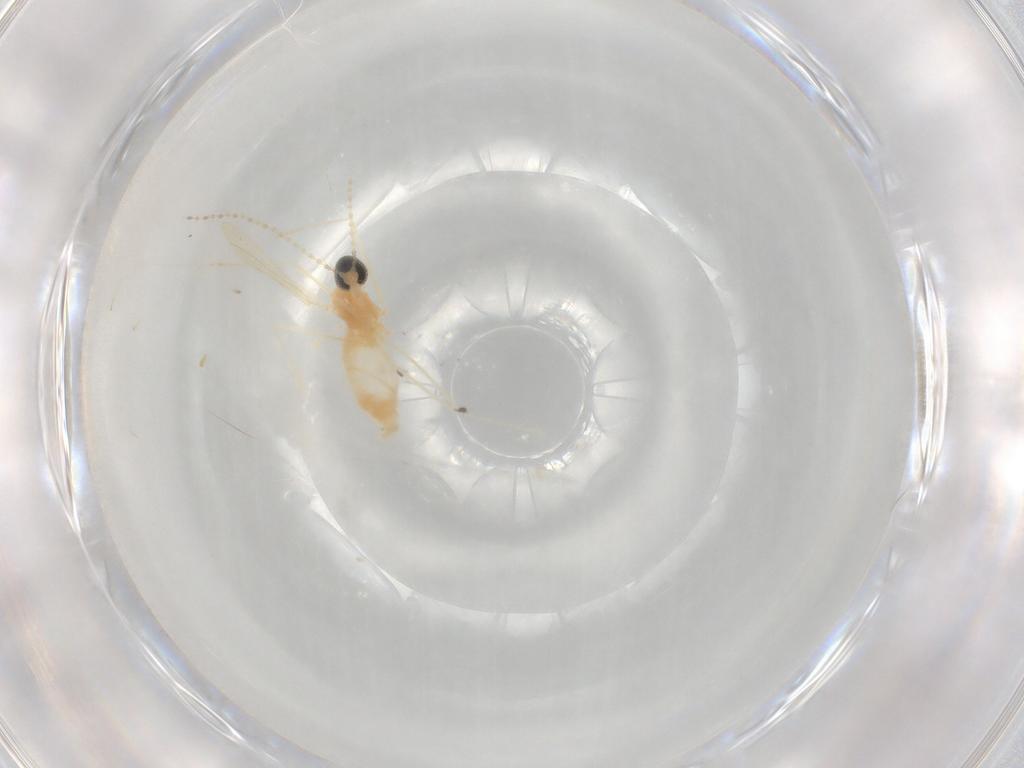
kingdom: Animalia
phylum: Arthropoda
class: Insecta
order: Diptera
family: Cecidomyiidae
